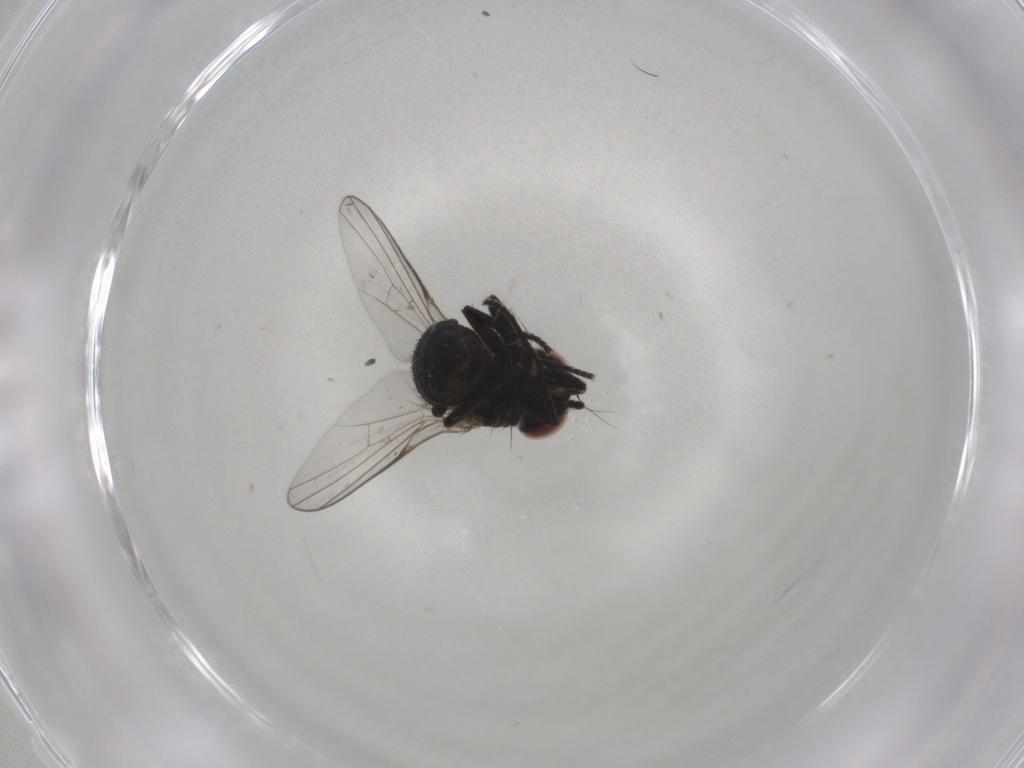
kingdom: Animalia
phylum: Arthropoda
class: Insecta
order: Diptera
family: Agromyzidae
